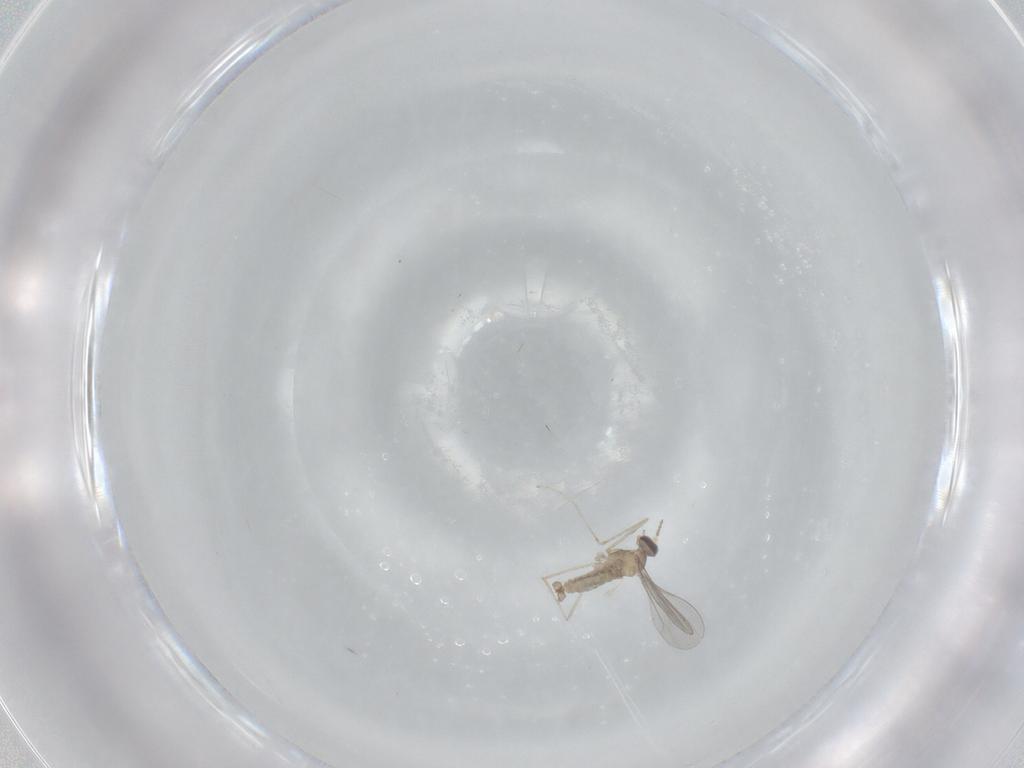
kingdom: Animalia
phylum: Arthropoda
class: Insecta
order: Diptera
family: Cecidomyiidae
